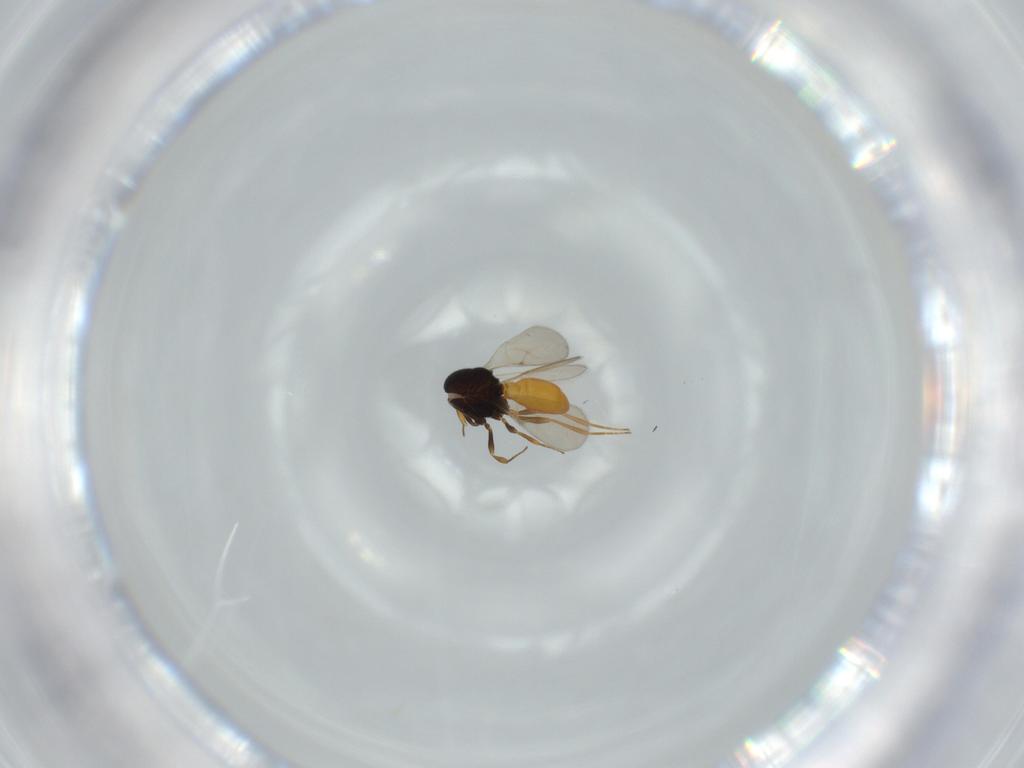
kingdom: Animalia
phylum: Arthropoda
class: Insecta
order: Hymenoptera
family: Scelionidae
